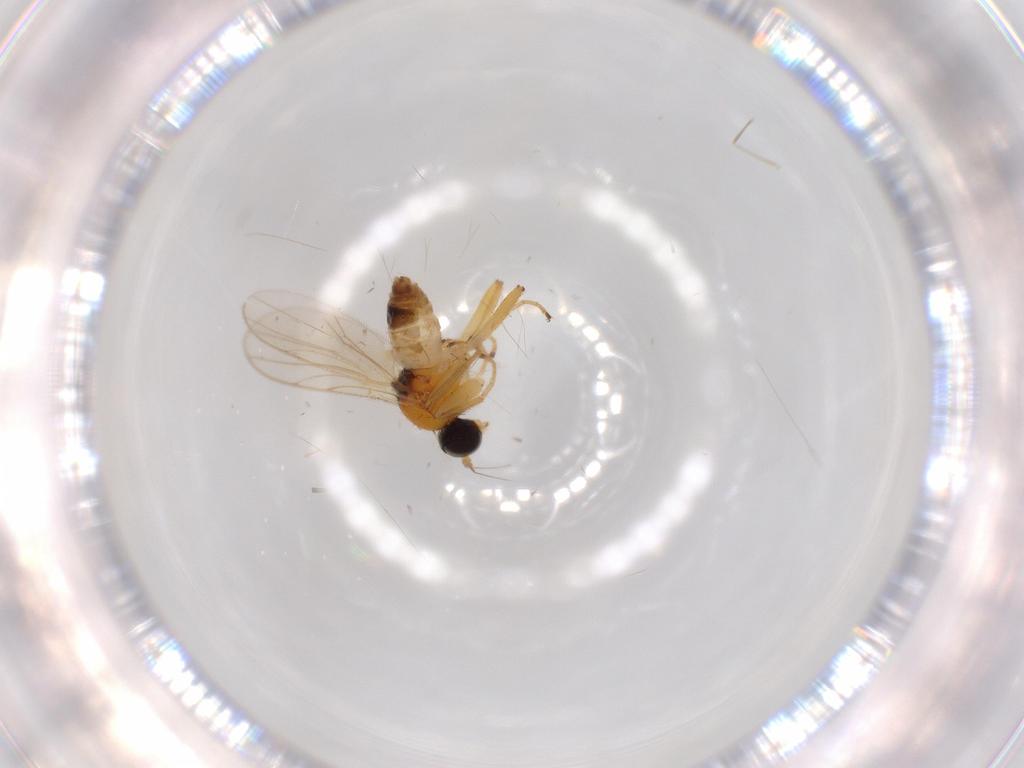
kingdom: Animalia
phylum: Arthropoda
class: Insecta
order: Diptera
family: Hybotidae
